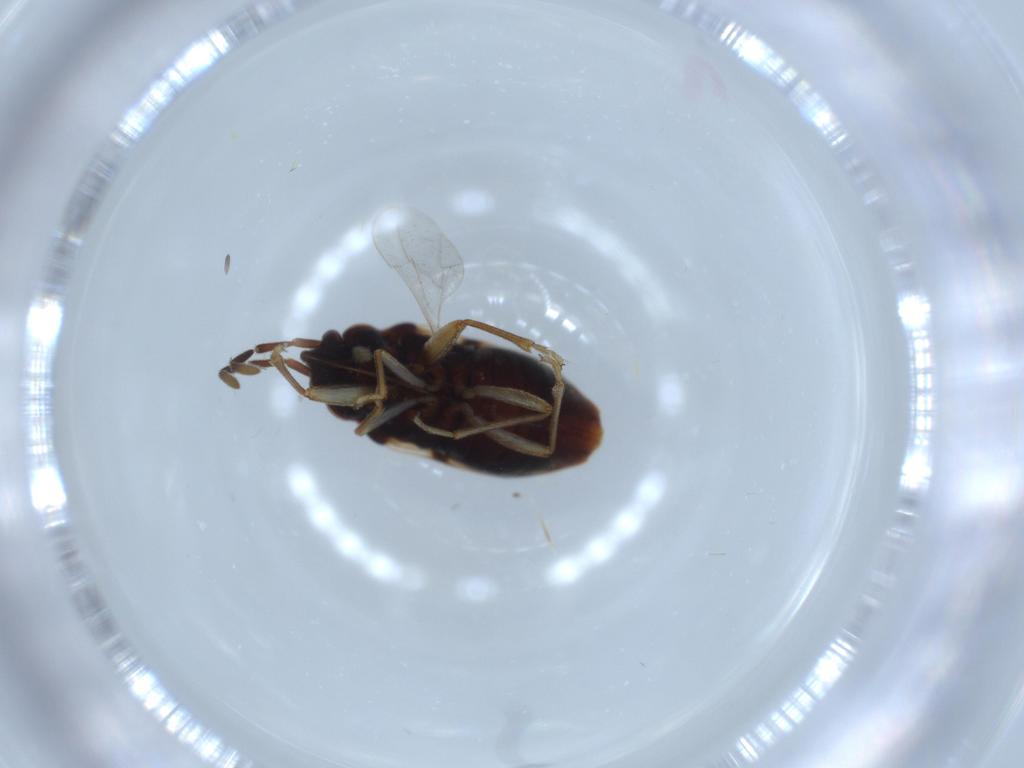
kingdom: Animalia
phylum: Arthropoda
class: Insecta
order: Hemiptera
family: Rhyparochromidae
